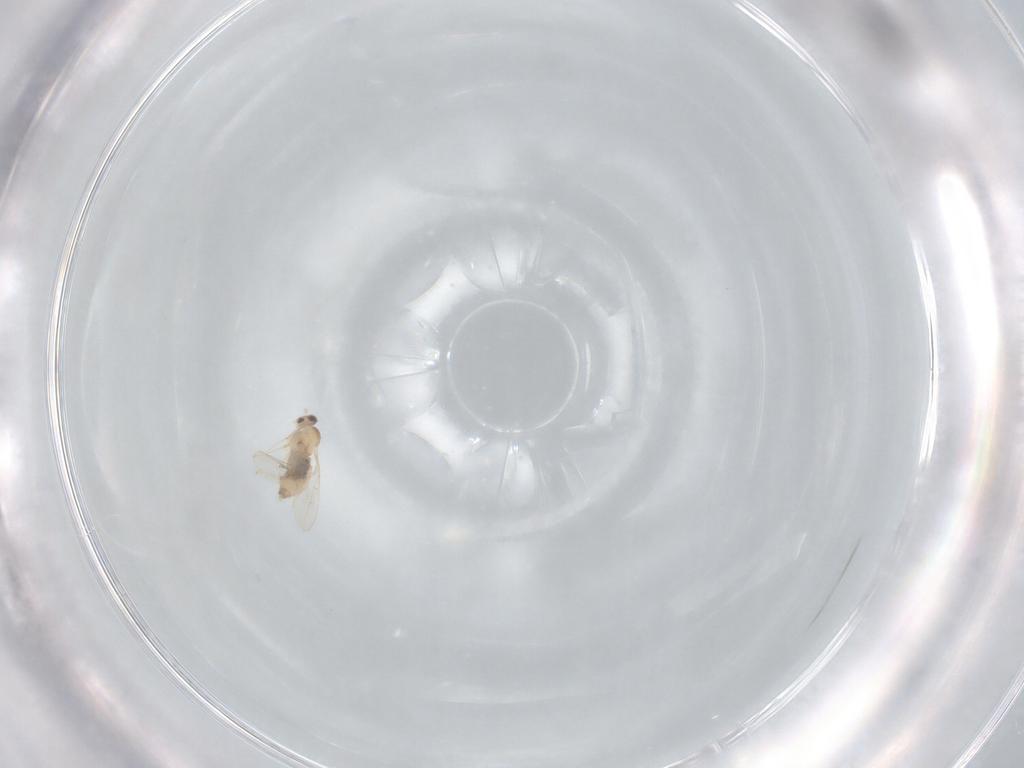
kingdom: Animalia
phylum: Arthropoda
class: Insecta
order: Diptera
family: Cecidomyiidae
